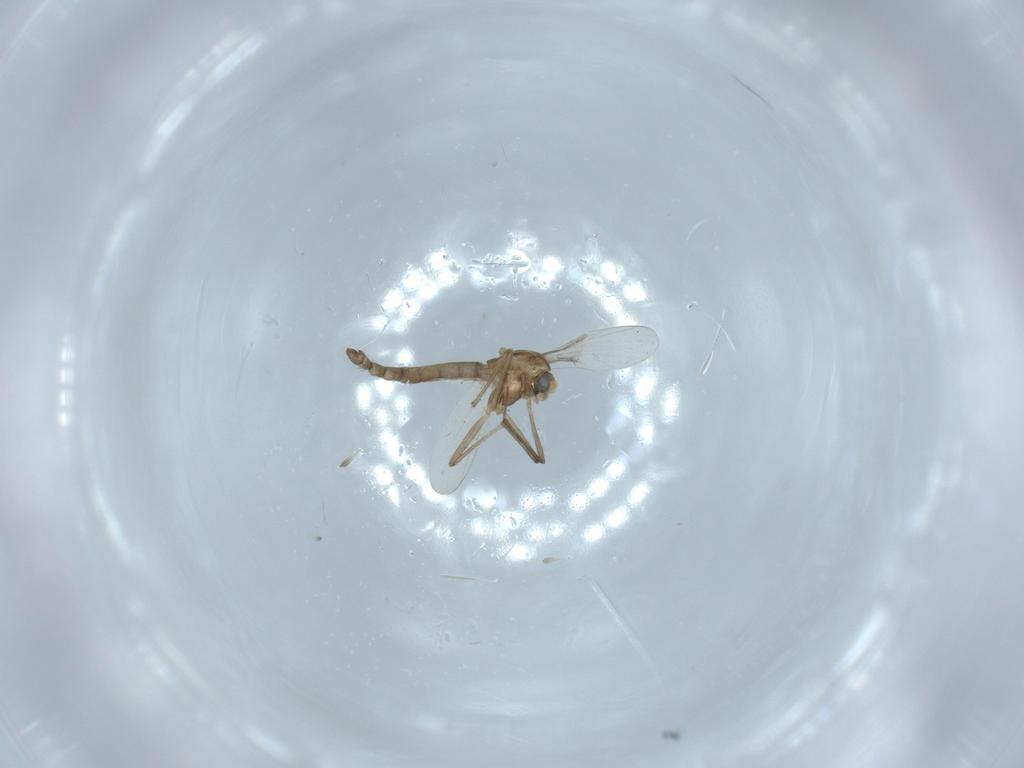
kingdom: Animalia
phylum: Arthropoda
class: Insecta
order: Diptera
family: Chironomidae
